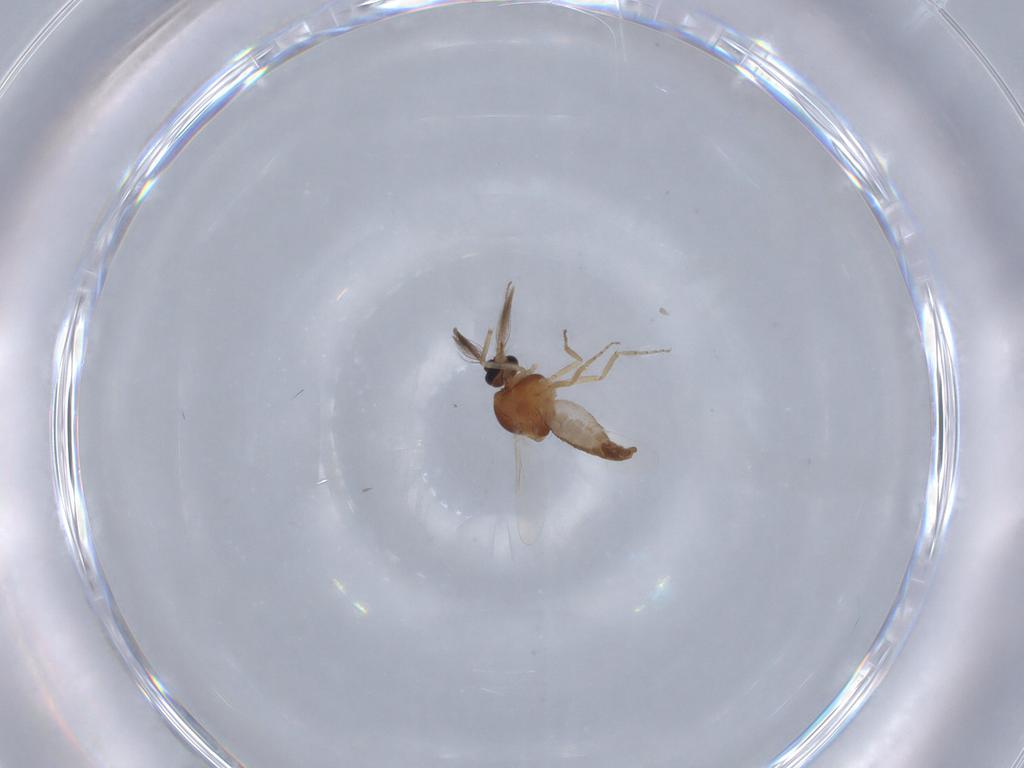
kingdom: Animalia
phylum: Arthropoda
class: Insecta
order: Diptera
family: Ceratopogonidae
